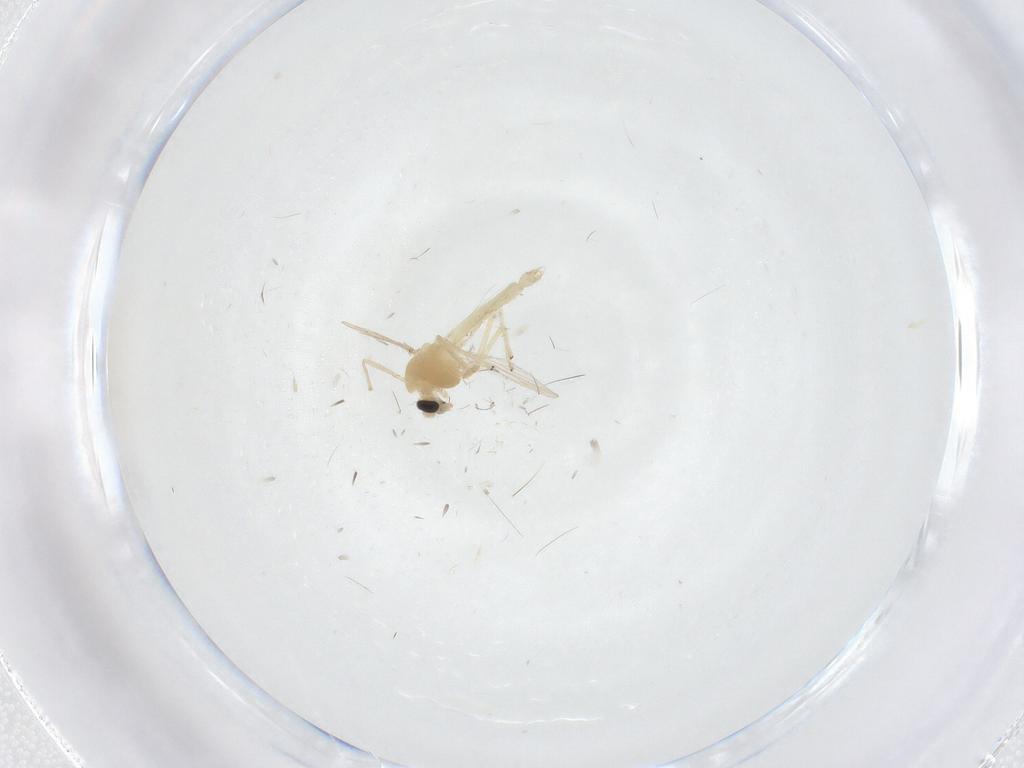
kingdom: Animalia
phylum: Arthropoda
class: Insecta
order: Diptera
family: Chironomidae
